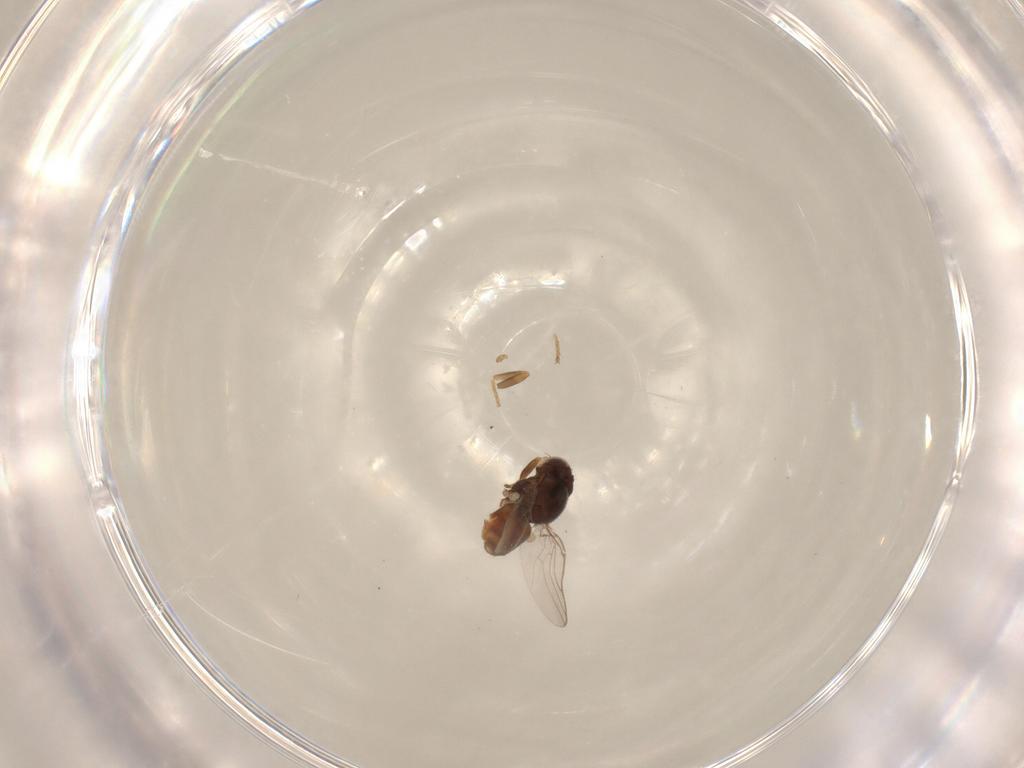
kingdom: Animalia
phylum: Arthropoda
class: Insecta
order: Diptera
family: Chloropidae
